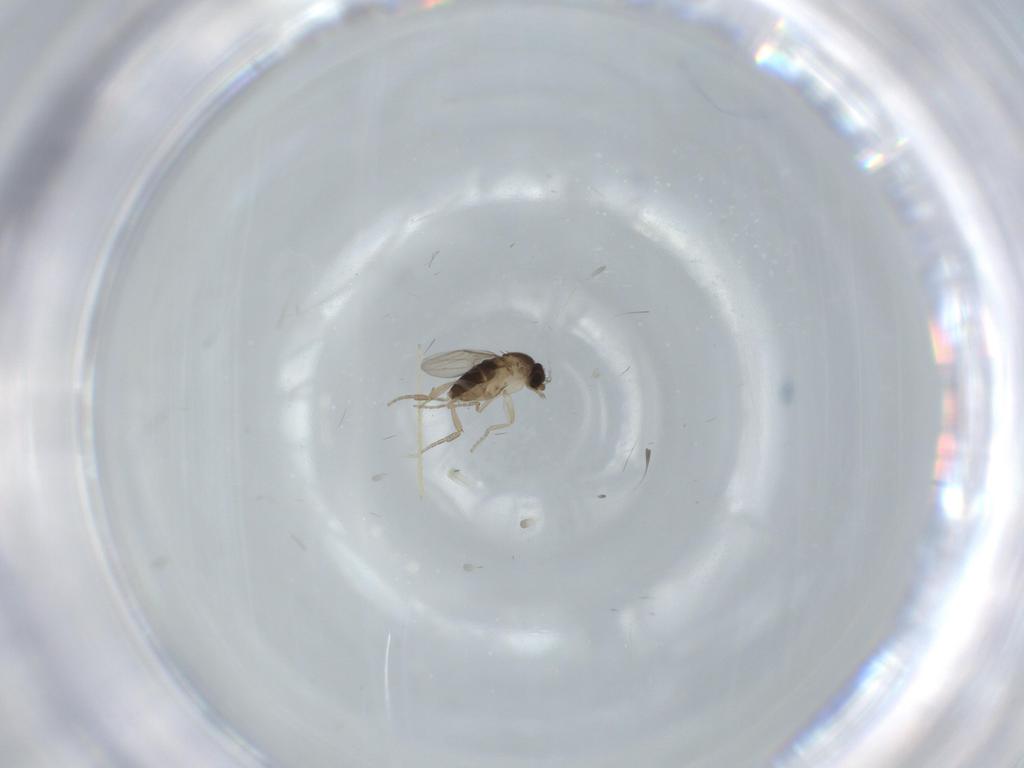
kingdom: Animalia
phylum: Arthropoda
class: Insecta
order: Diptera
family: Chironomidae
